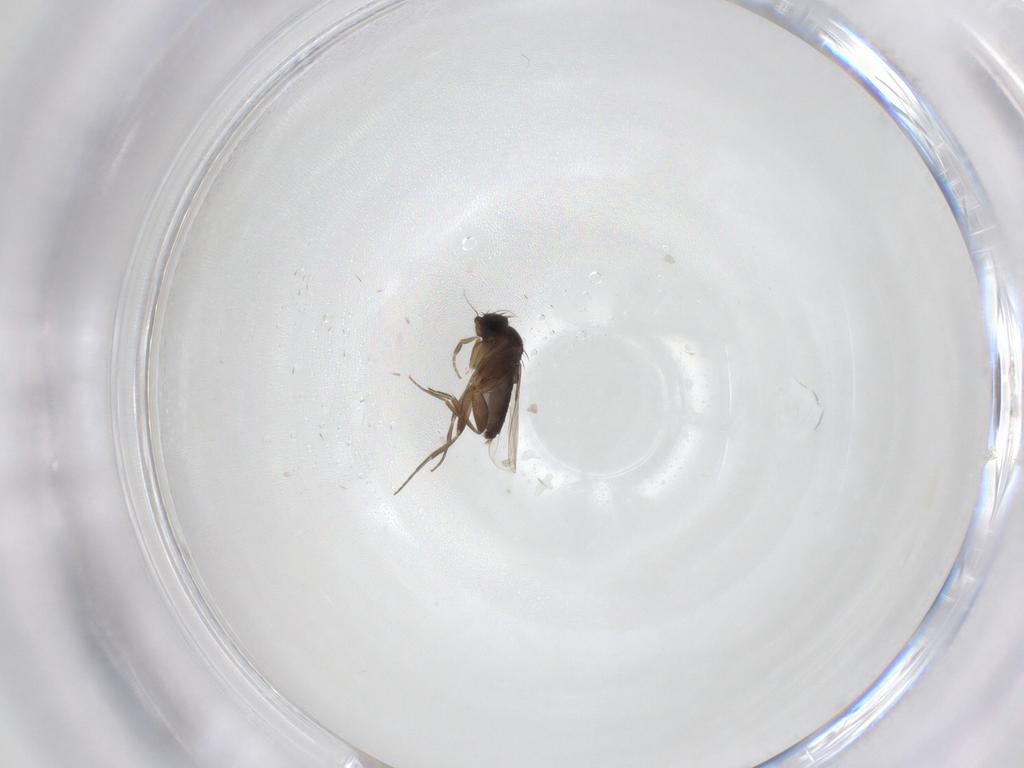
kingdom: Animalia
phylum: Arthropoda
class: Insecta
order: Diptera
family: Phoridae
